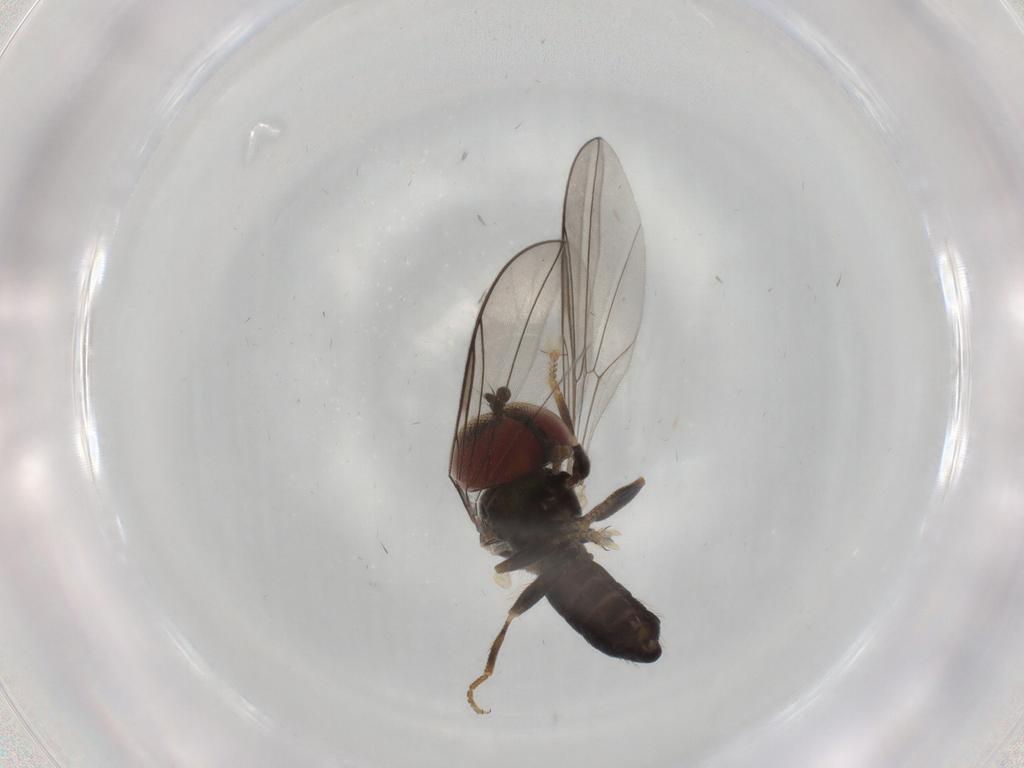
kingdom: Animalia
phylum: Arthropoda
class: Insecta
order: Diptera
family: Pipunculidae
